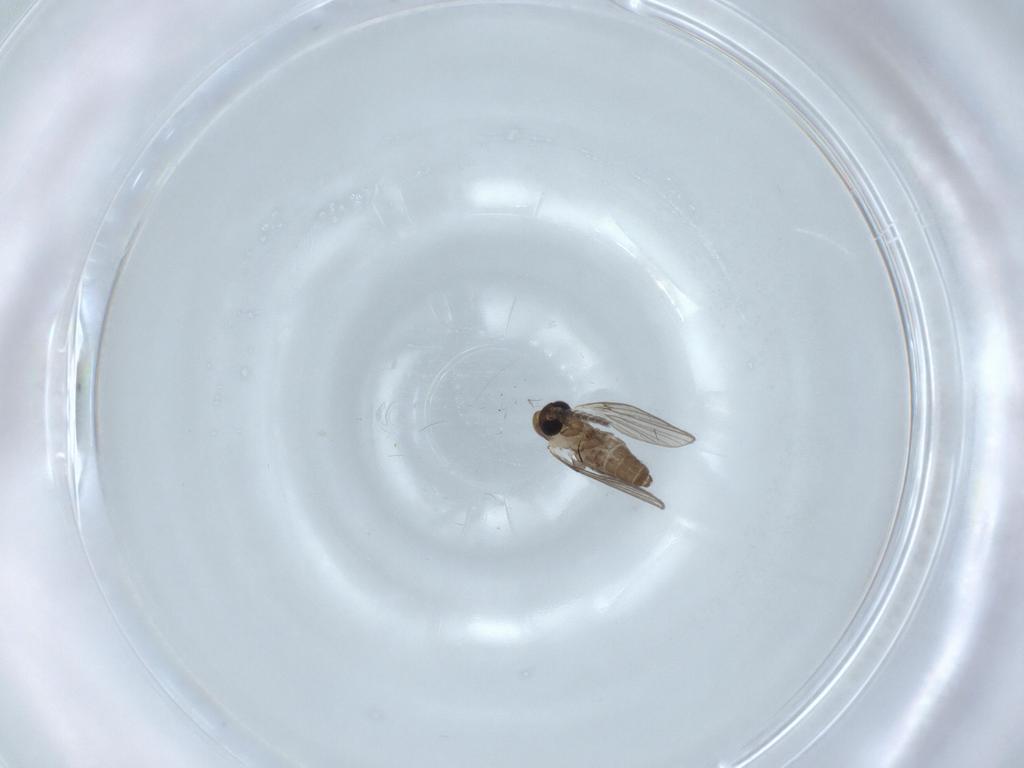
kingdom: Animalia
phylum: Arthropoda
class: Insecta
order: Diptera
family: Psychodidae
